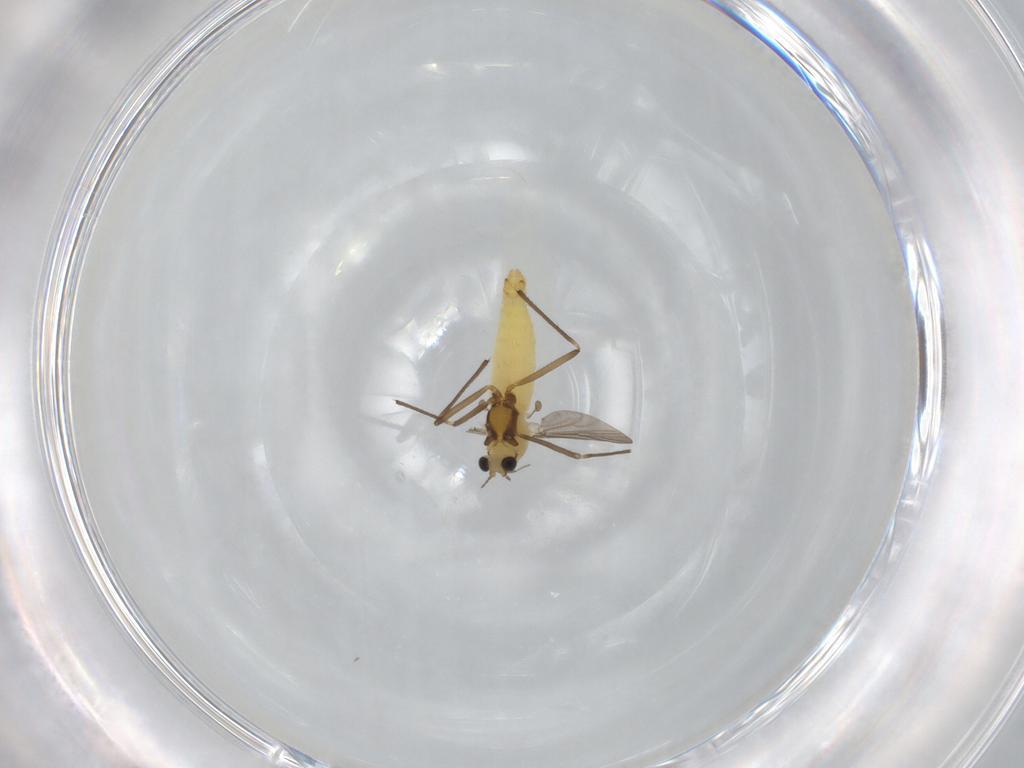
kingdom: Animalia
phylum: Arthropoda
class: Insecta
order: Diptera
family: Chironomidae
